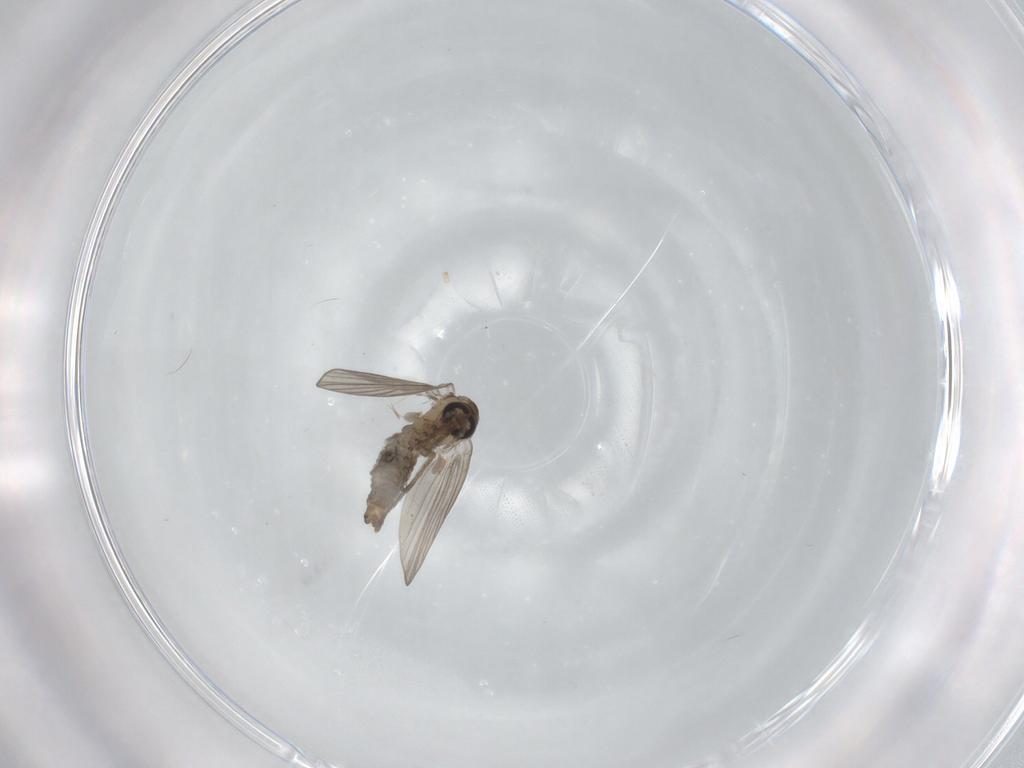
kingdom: Animalia
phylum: Arthropoda
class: Insecta
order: Diptera
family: Psychodidae
